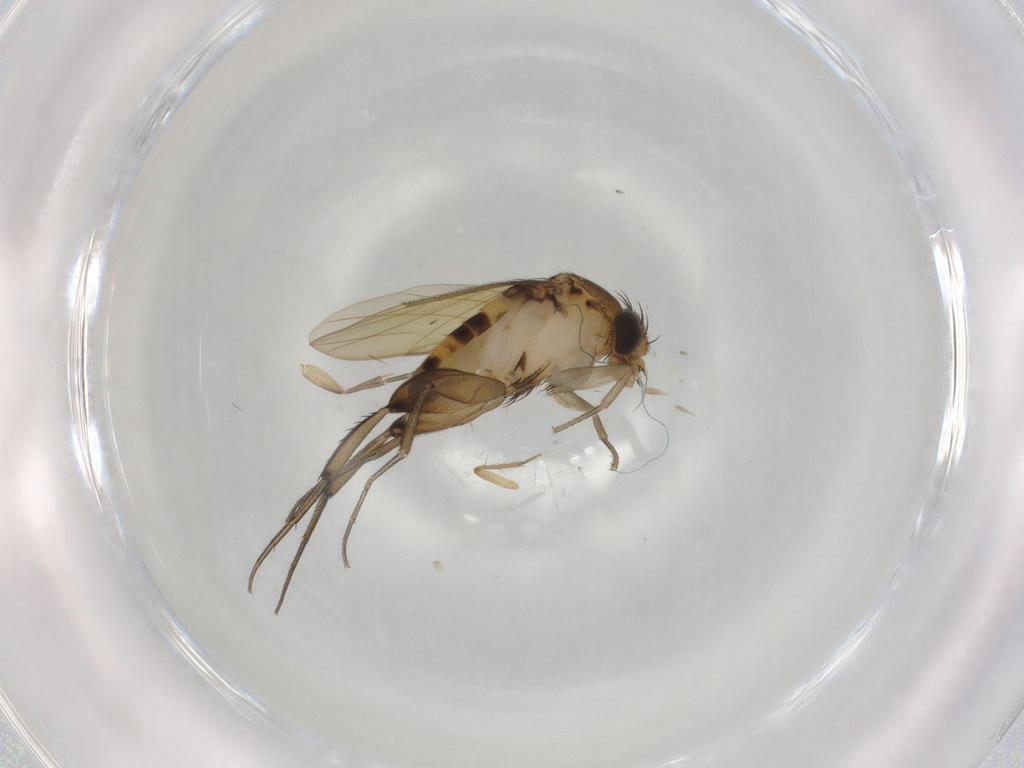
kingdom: Animalia
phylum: Arthropoda
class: Insecta
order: Diptera
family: Phoridae
